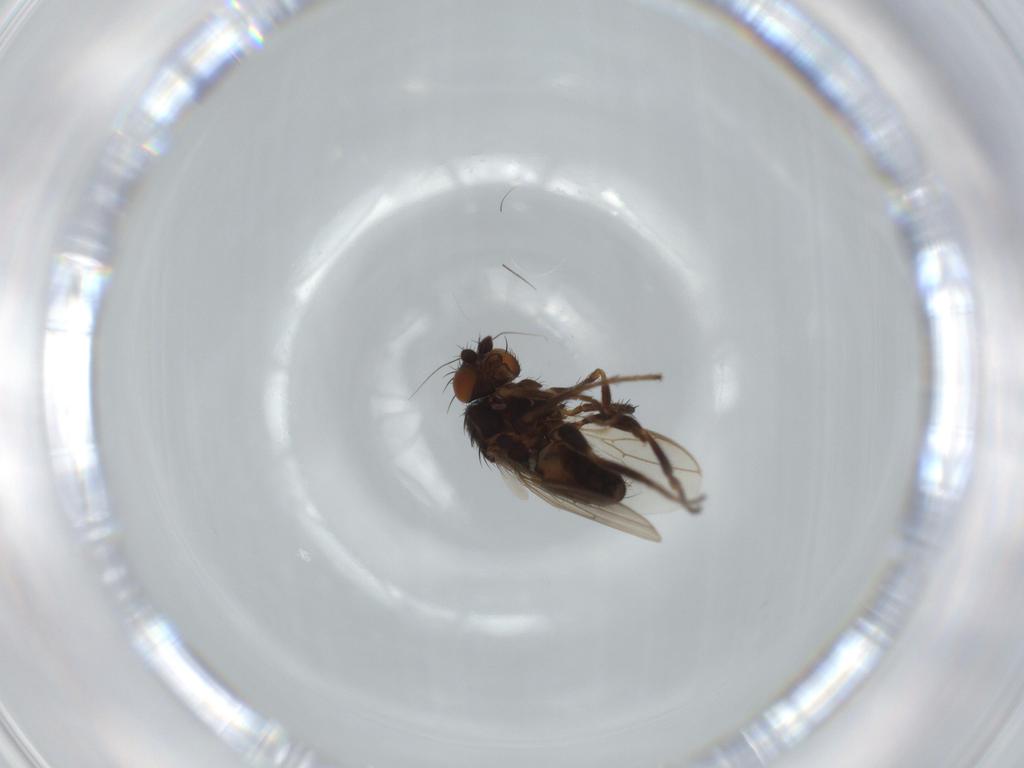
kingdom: Animalia
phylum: Arthropoda
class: Insecta
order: Diptera
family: Sphaeroceridae
